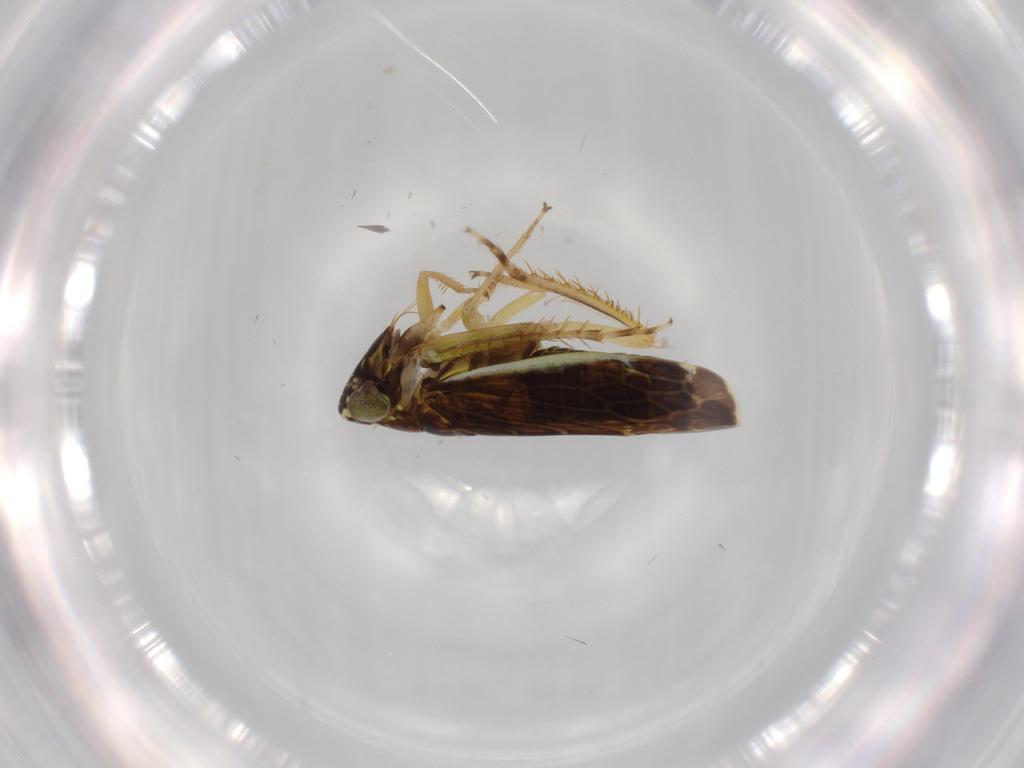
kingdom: Animalia
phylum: Arthropoda
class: Insecta
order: Hemiptera
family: Cicadellidae
